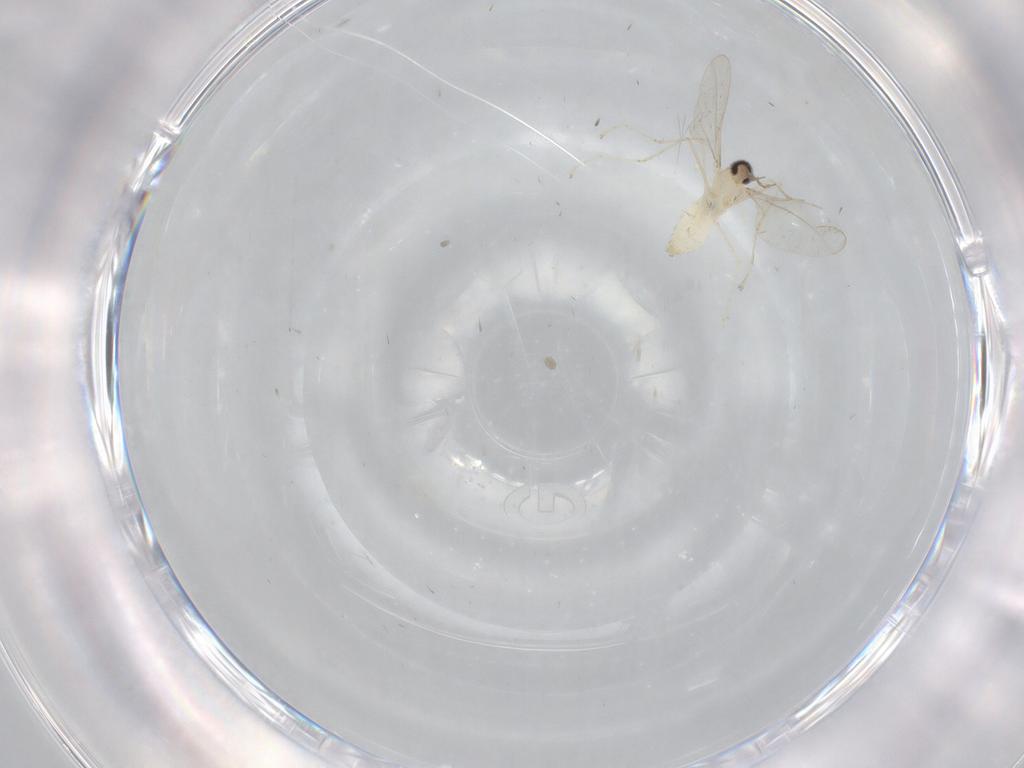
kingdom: Animalia
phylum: Arthropoda
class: Insecta
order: Diptera
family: Cecidomyiidae
